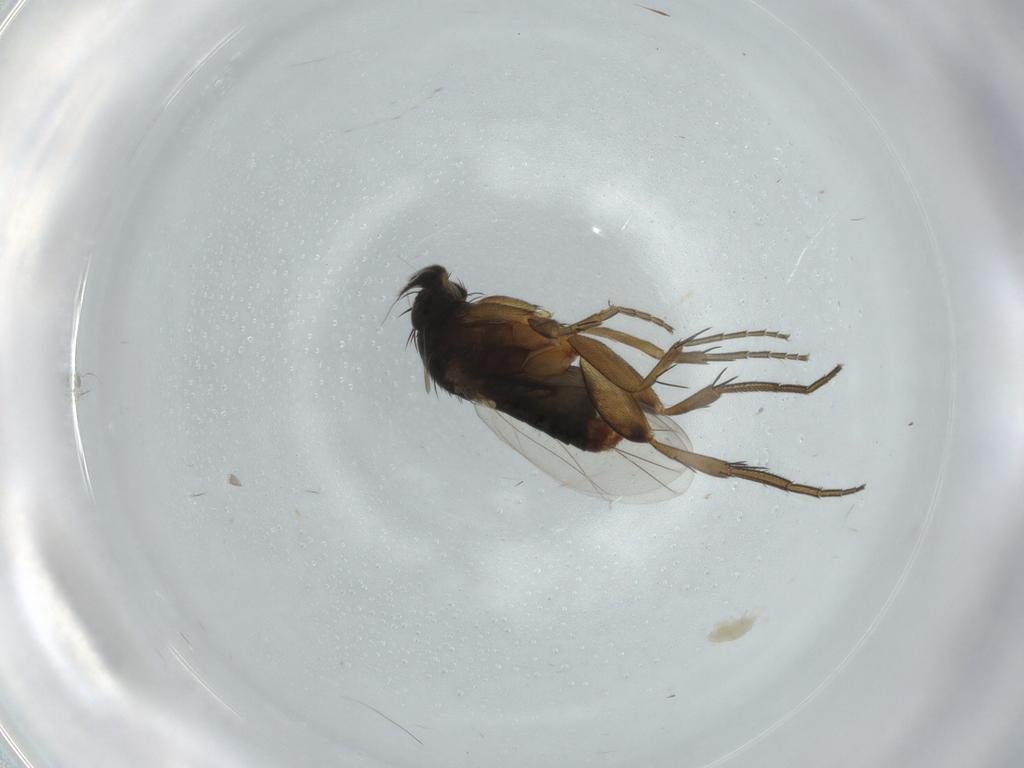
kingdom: Animalia
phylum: Arthropoda
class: Insecta
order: Diptera
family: Phoridae
